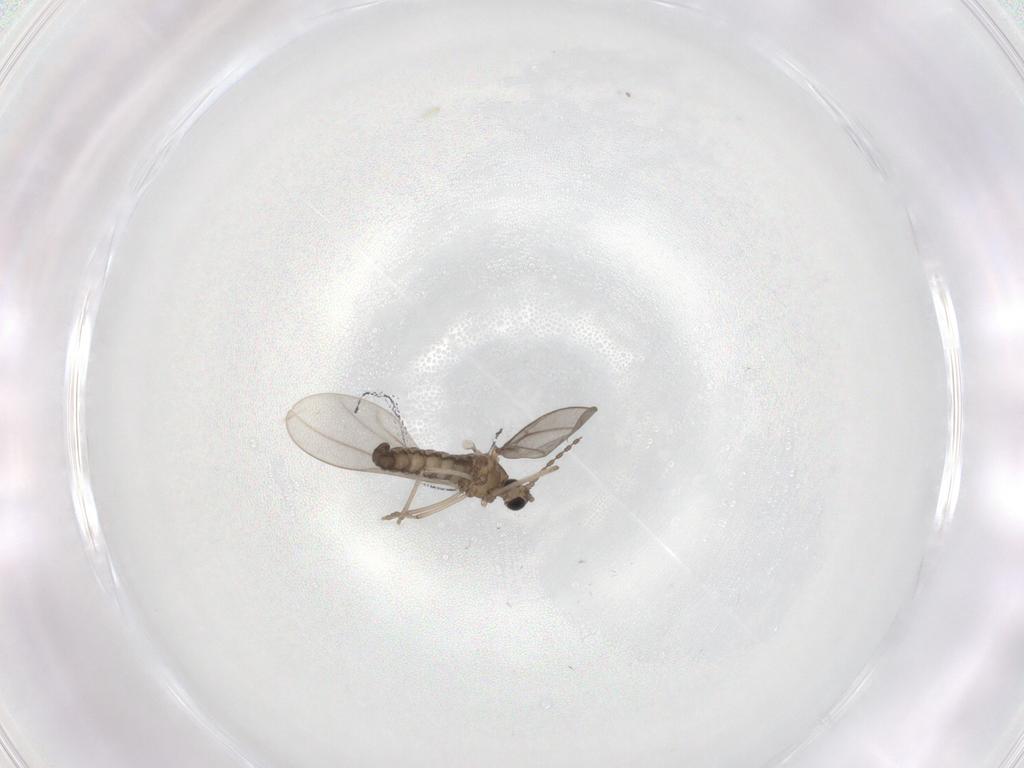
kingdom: Animalia
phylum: Arthropoda
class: Insecta
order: Diptera
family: Cecidomyiidae
